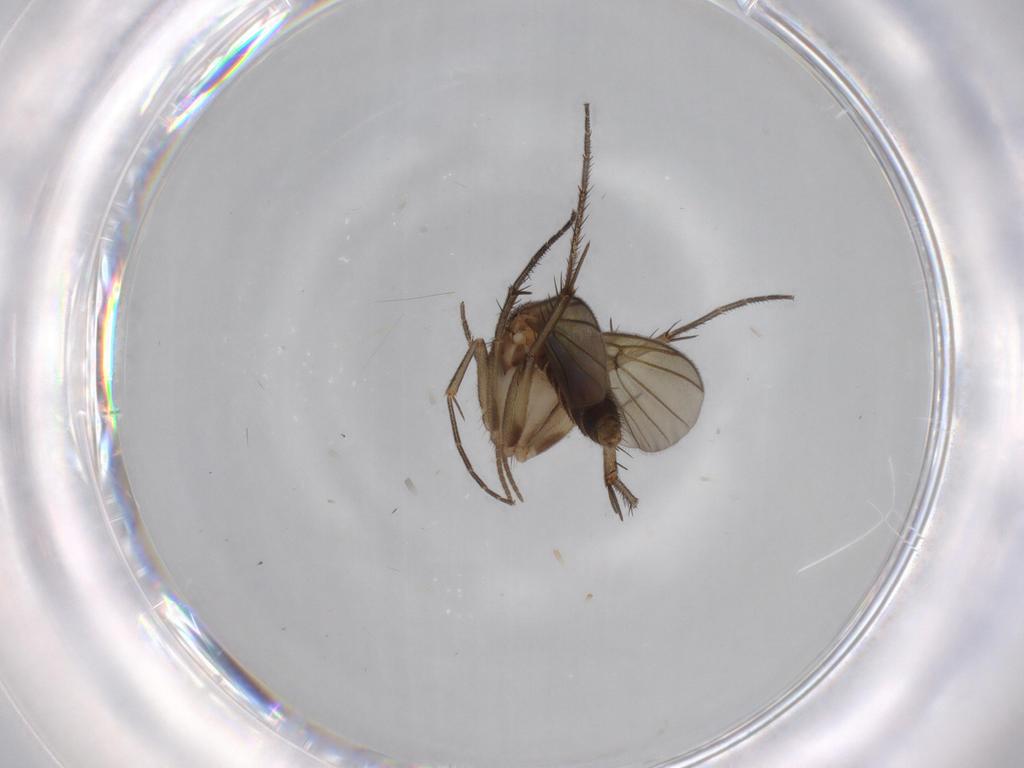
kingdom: Animalia
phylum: Arthropoda
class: Insecta
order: Diptera
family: Mycetophilidae
